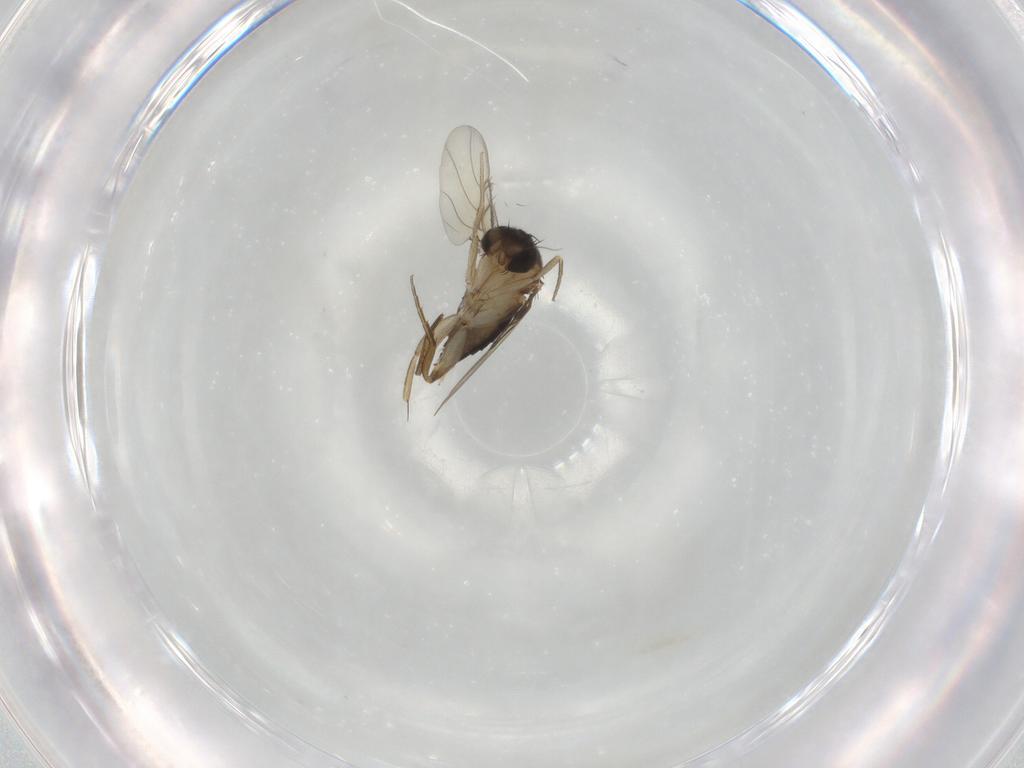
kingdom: Animalia
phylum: Arthropoda
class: Insecta
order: Diptera
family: Phoridae
